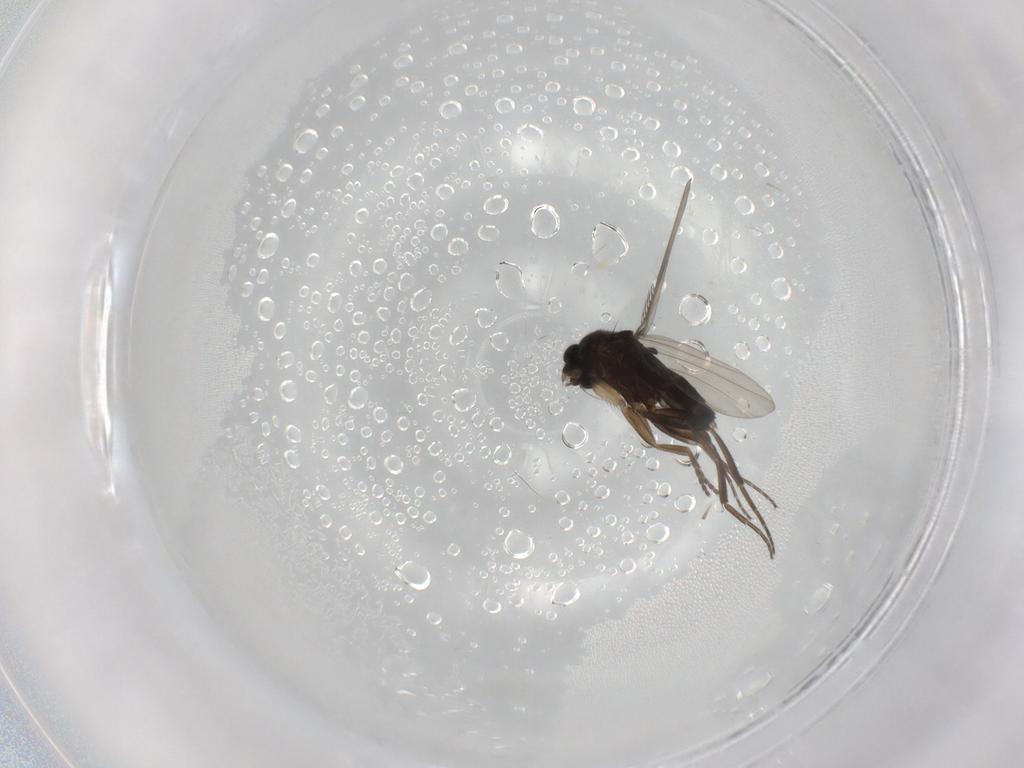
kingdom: Animalia
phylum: Arthropoda
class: Insecta
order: Diptera
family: Phoridae
